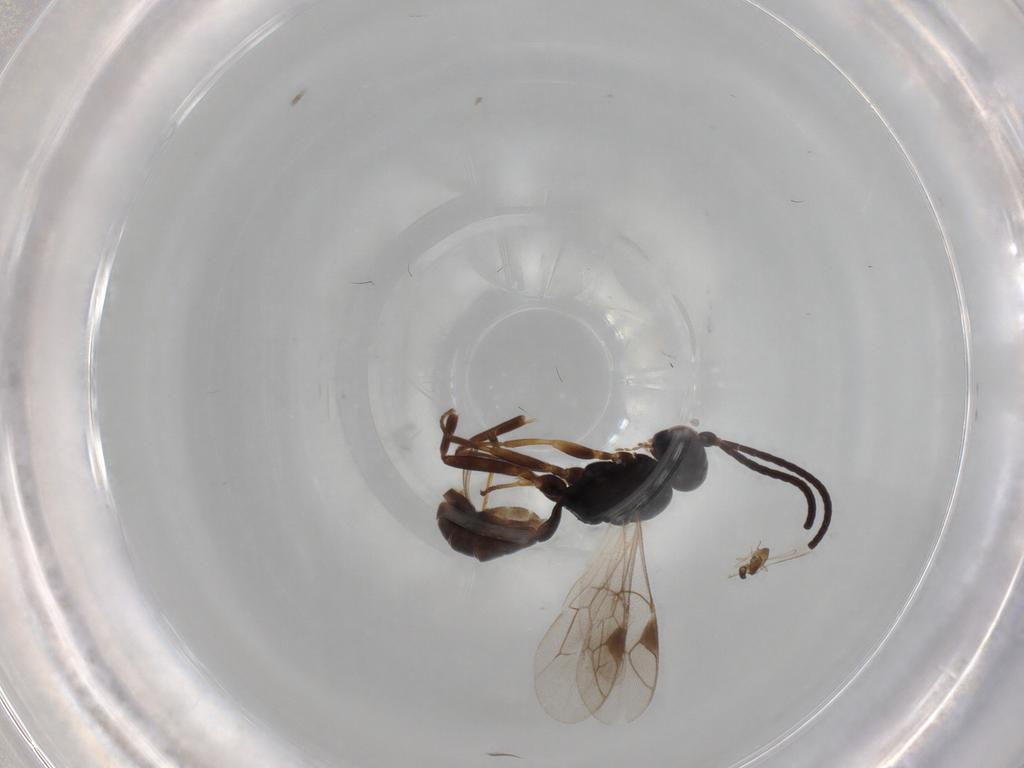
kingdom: Animalia
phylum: Arthropoda
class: Insecta
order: Hymenoptera
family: Ichneumonidae
